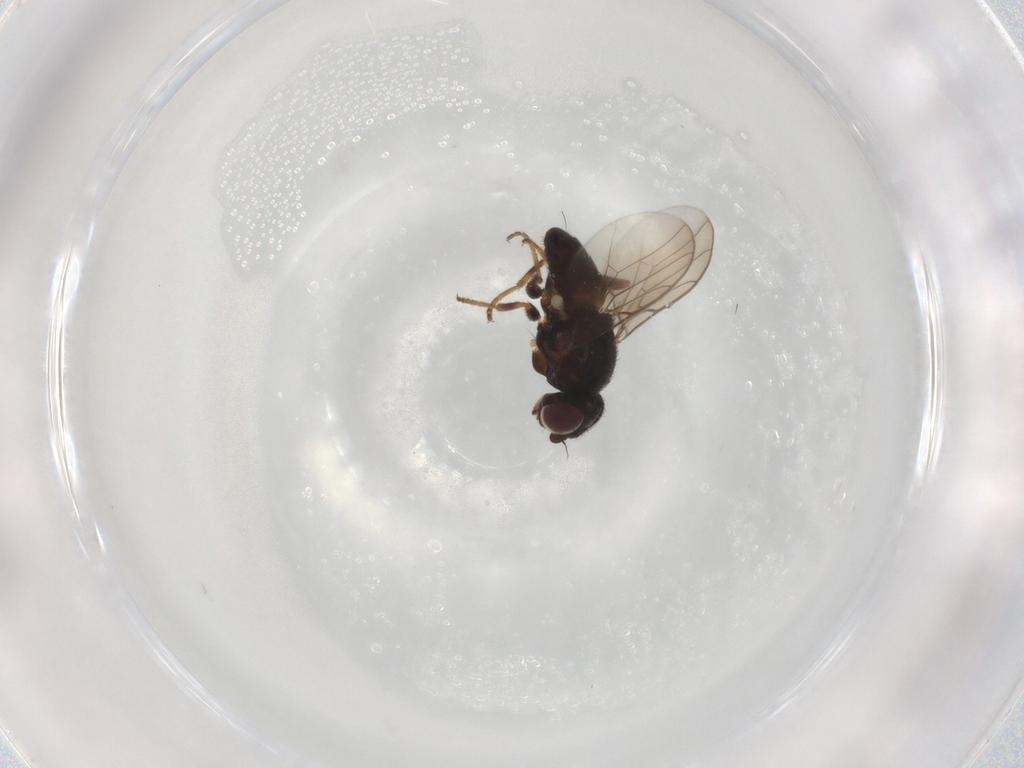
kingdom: Animalia
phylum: Arthropoda
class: Insecta
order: Diptera
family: Chloropidae
